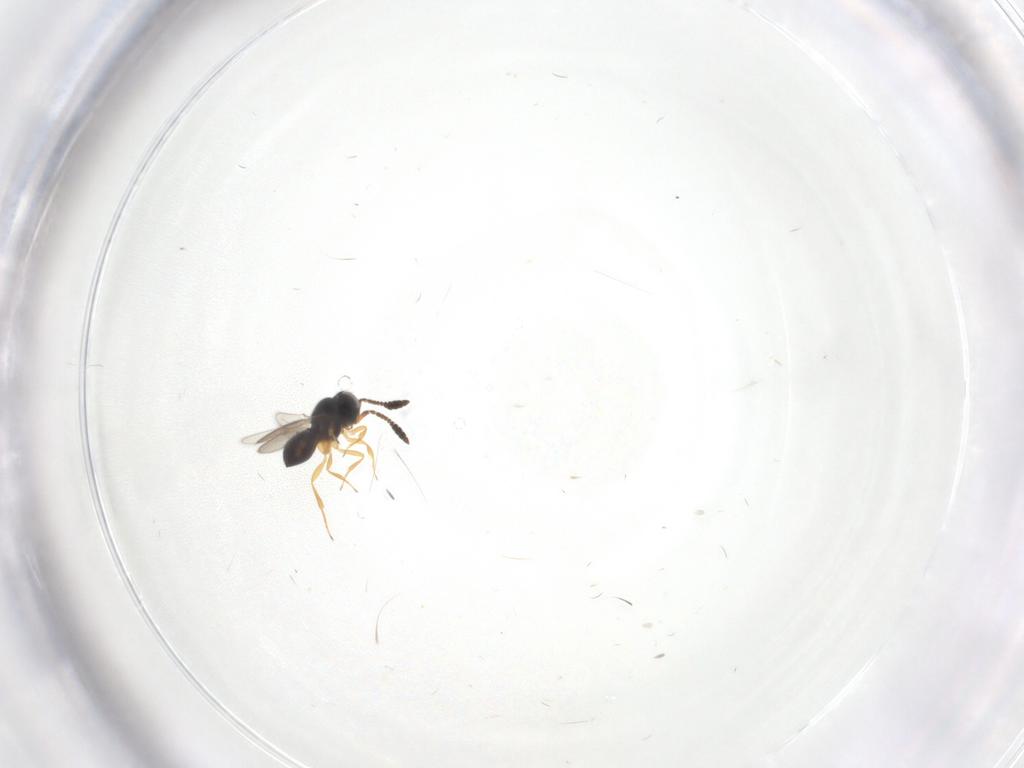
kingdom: Animalia
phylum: Arthropoda
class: Insecta
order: Hymenoptera
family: Scelionidae
